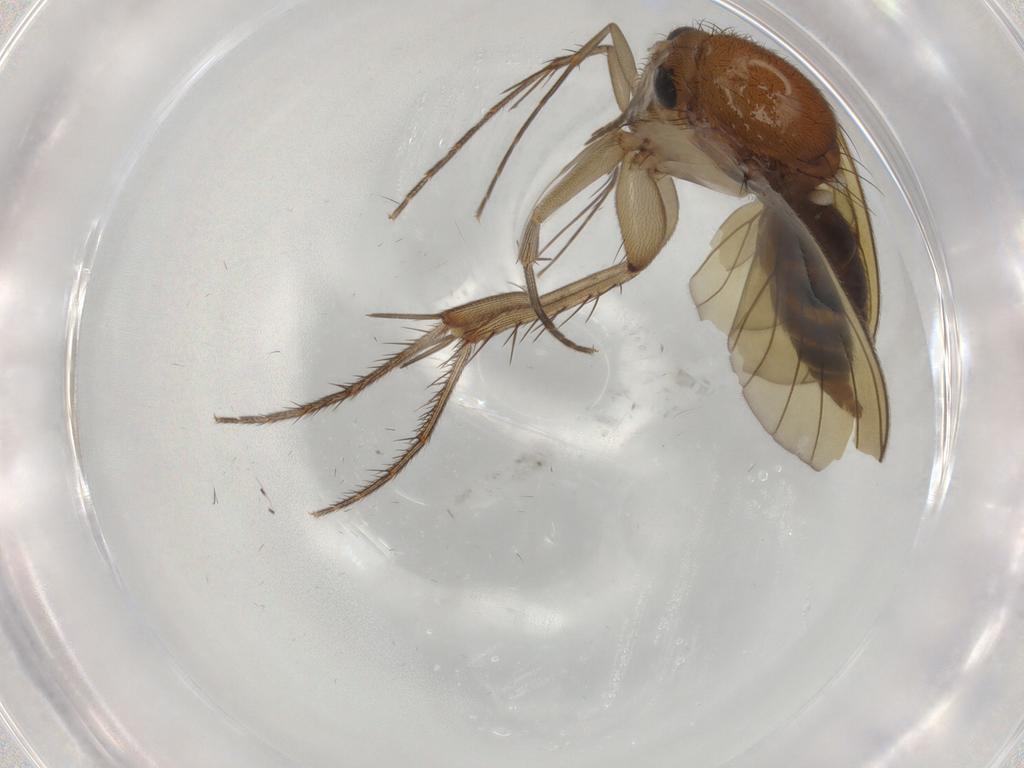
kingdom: Animalia
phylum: Arthropoda
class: Insecta
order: Diptera
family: Mycetophilidae
